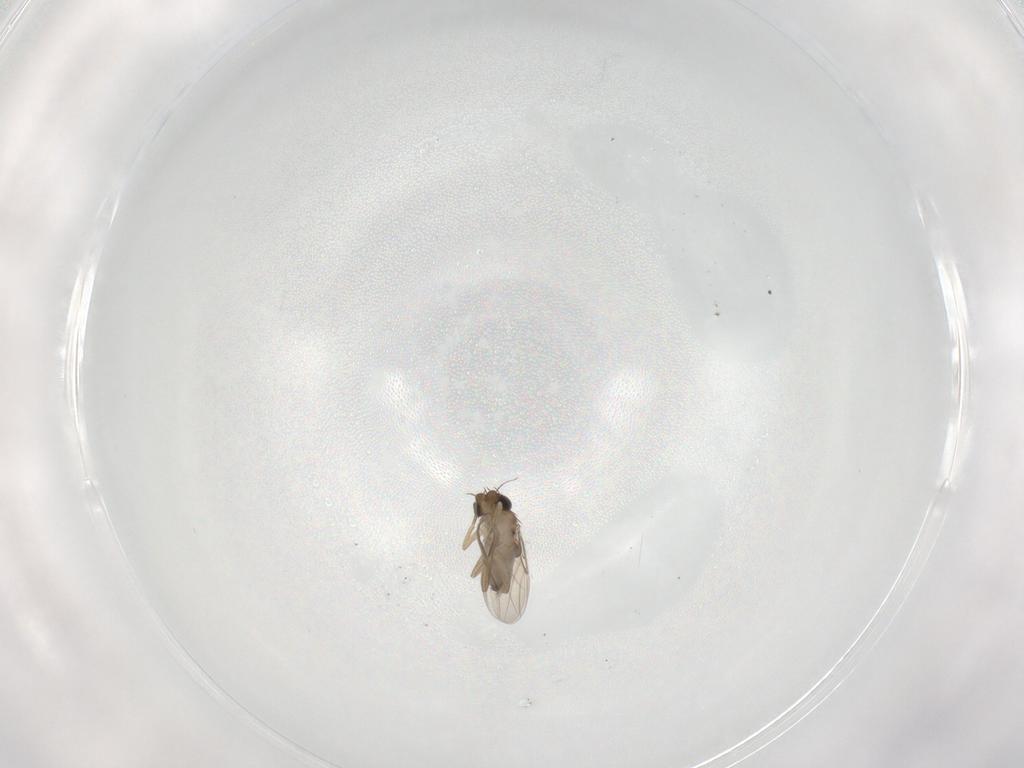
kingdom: Animalia
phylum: Arthropoda
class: Insecta
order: Diptera
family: Phoridae
